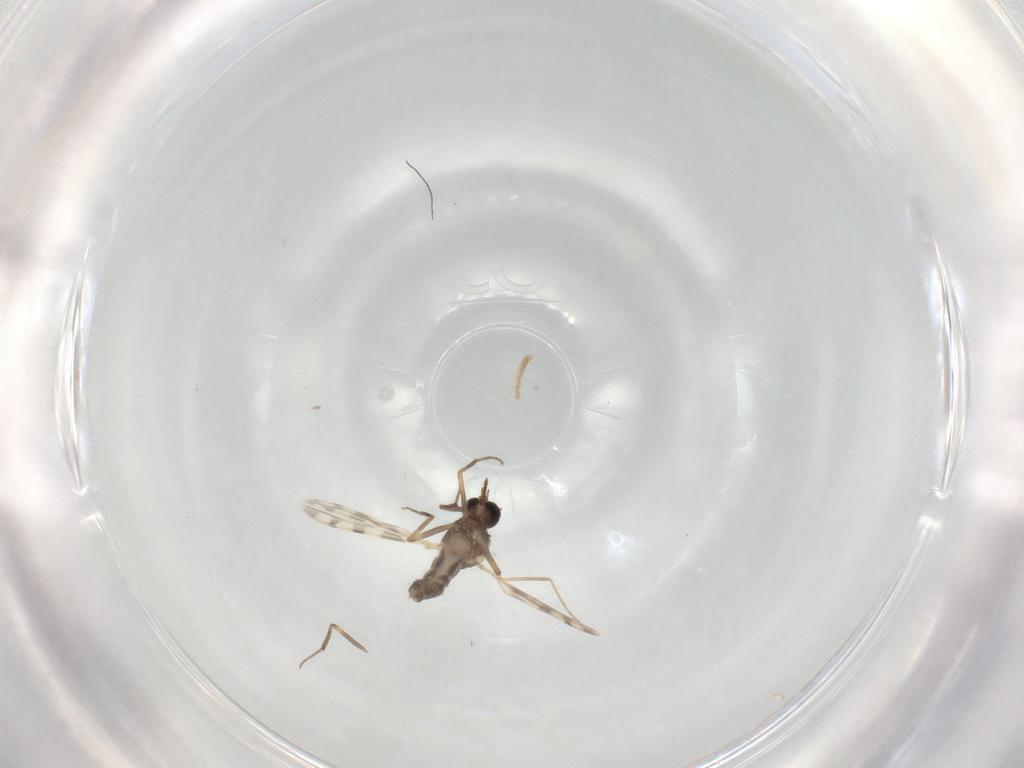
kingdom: Animalia
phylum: Arthropoda
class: Insecta
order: Diptera
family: Ceratopogonidae
